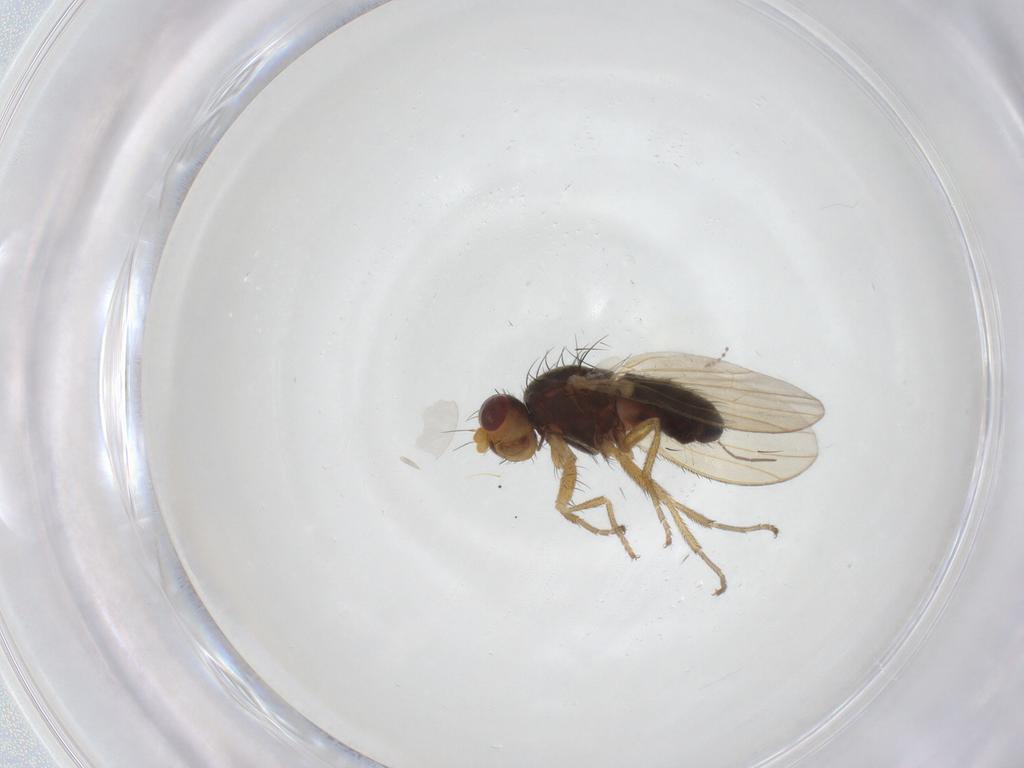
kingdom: Animalia
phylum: Arthropoda
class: Insecta
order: Diptera
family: Heleomyzidae
